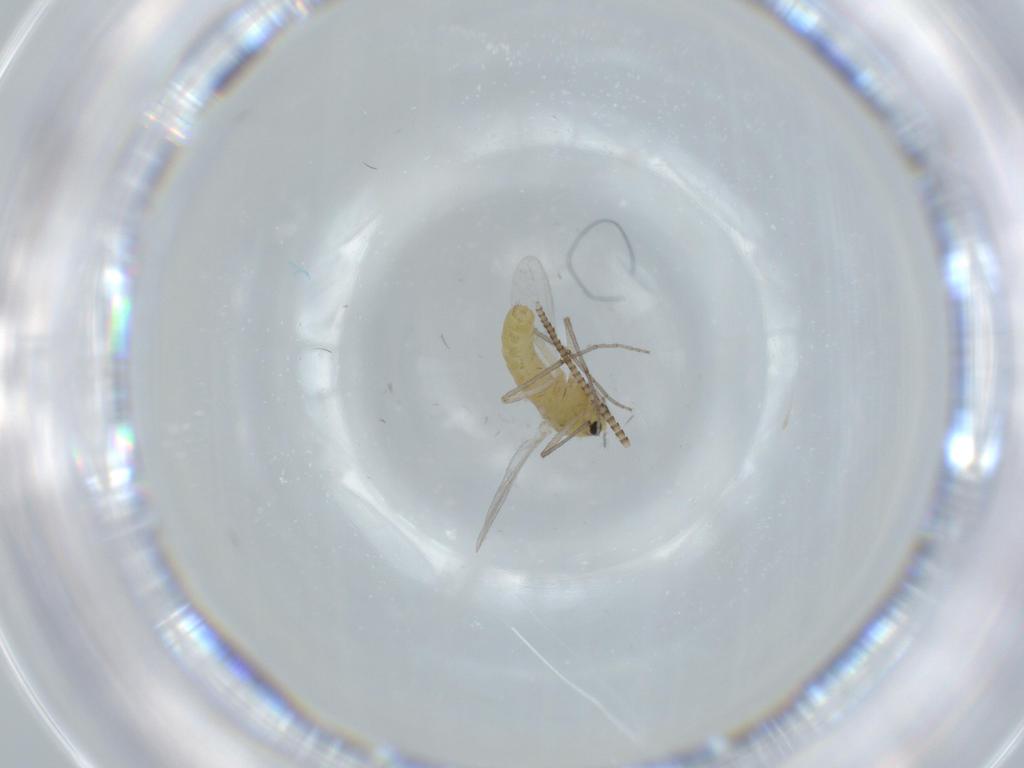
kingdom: Animalia
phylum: Arthropoda
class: Insecta
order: Diptera
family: Chironomidae
